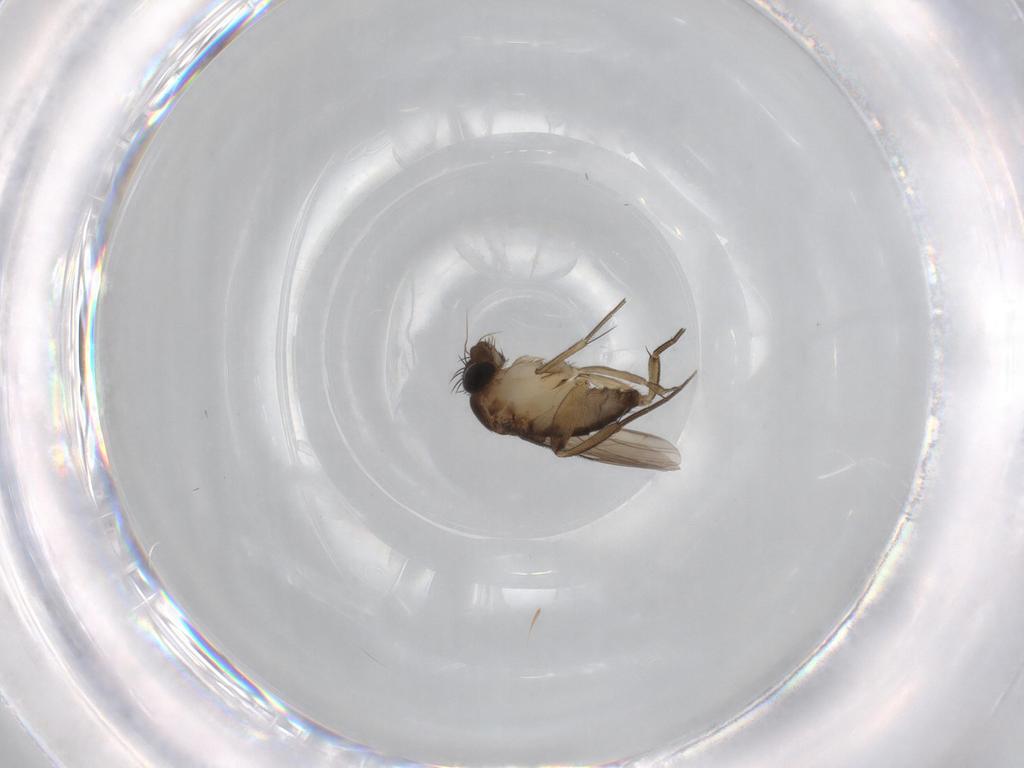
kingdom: Animalia
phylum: Arthropoda
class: Insecta
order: Diptera
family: Phoridae
